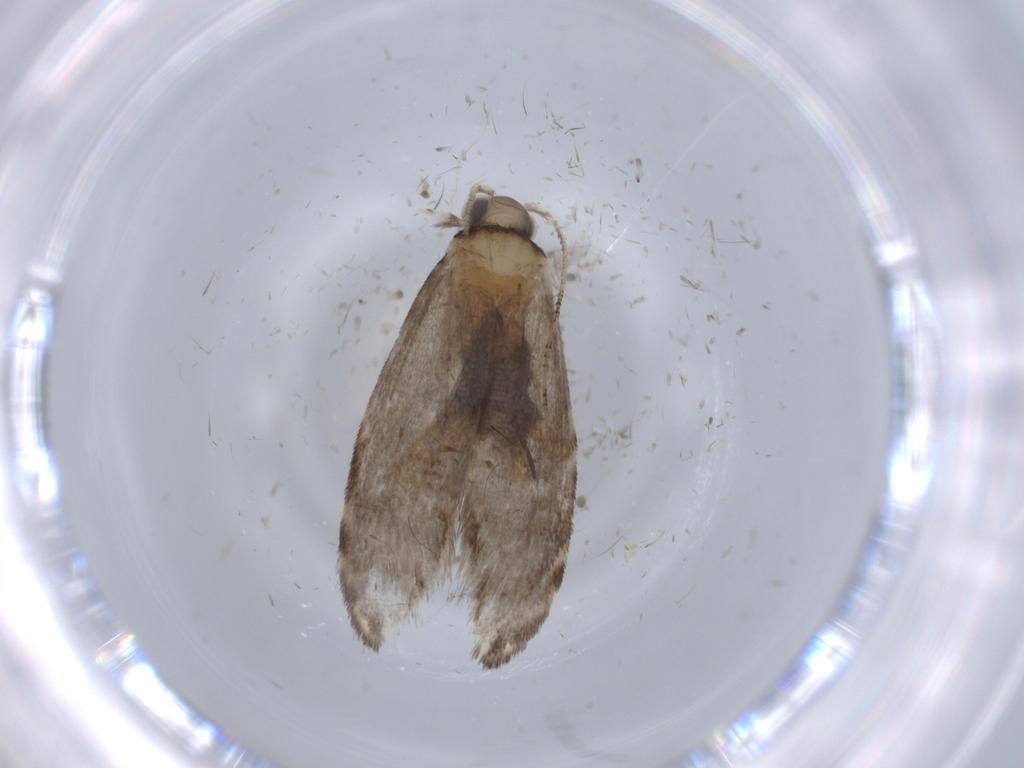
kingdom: Animalia
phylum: Arthropoda
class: Insecta
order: Lepidoptera
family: Tineidae
